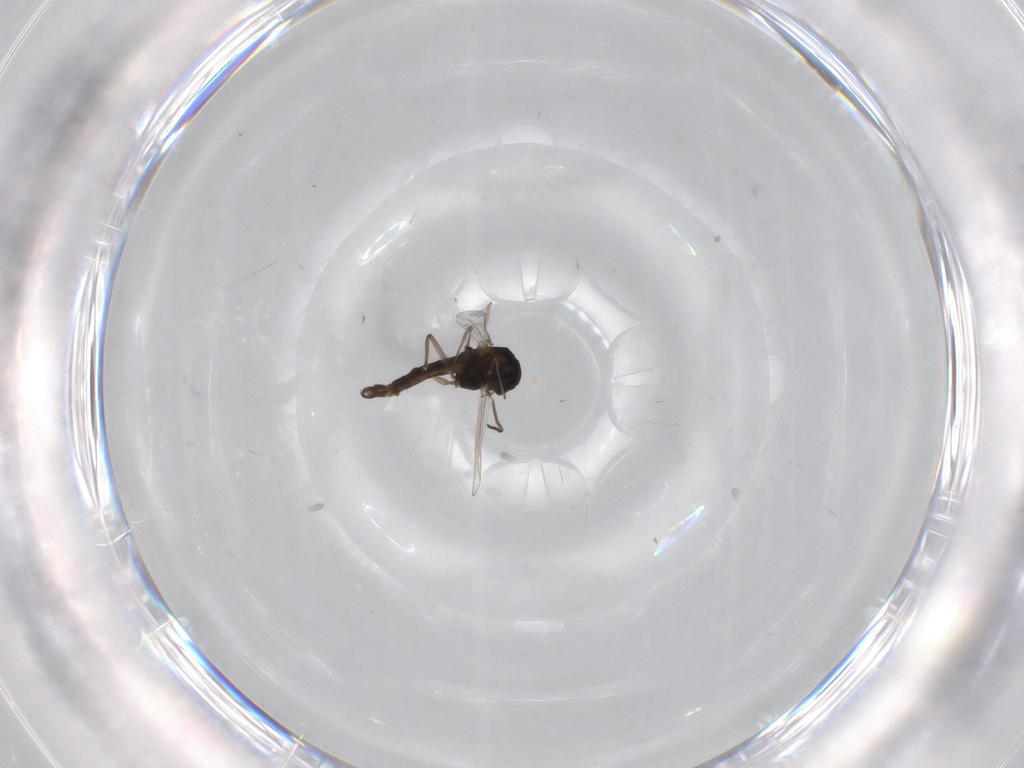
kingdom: Animalia
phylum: Arthropoda
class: Insecta
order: Diptera
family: Chironomidae
